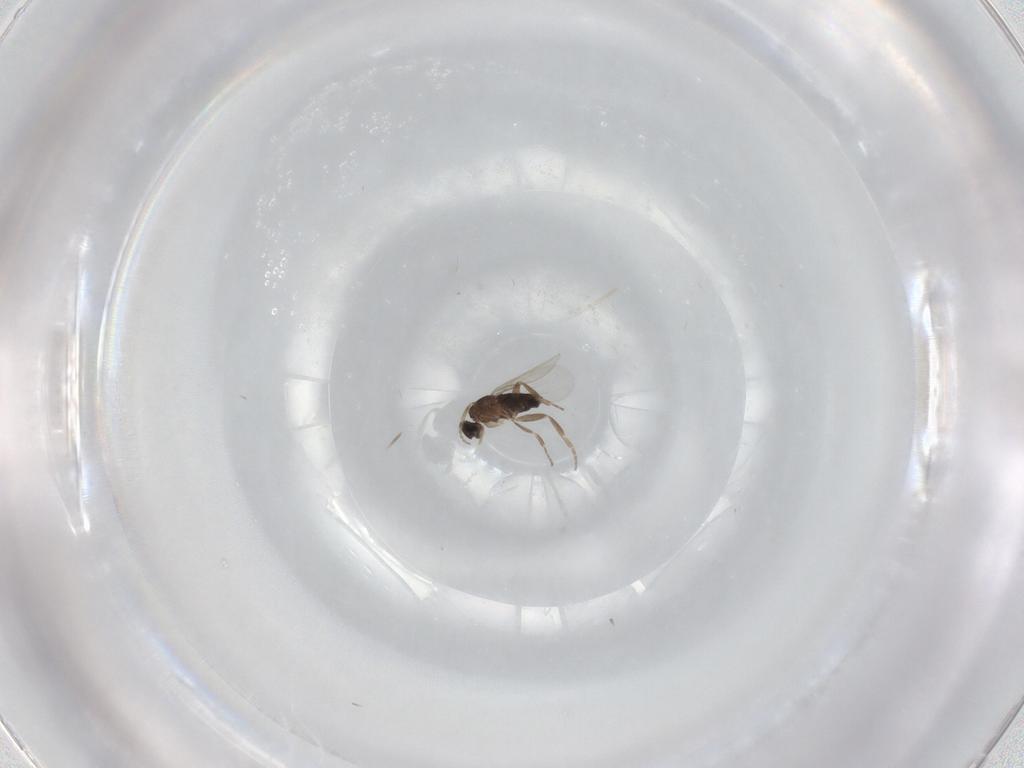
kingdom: Animalia
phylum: Arthropoda
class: Insecta
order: Diptera
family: Phoridae
